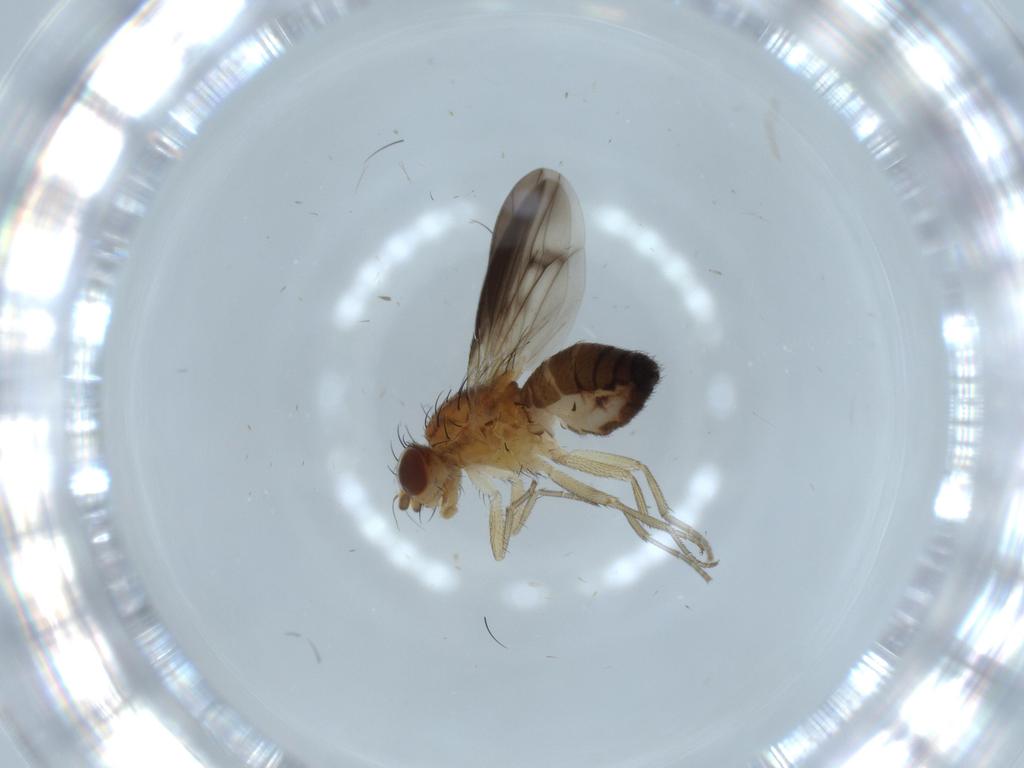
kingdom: Animalia
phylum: Arthropoda
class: Insecta
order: Diptera
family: Heleomyzidae
